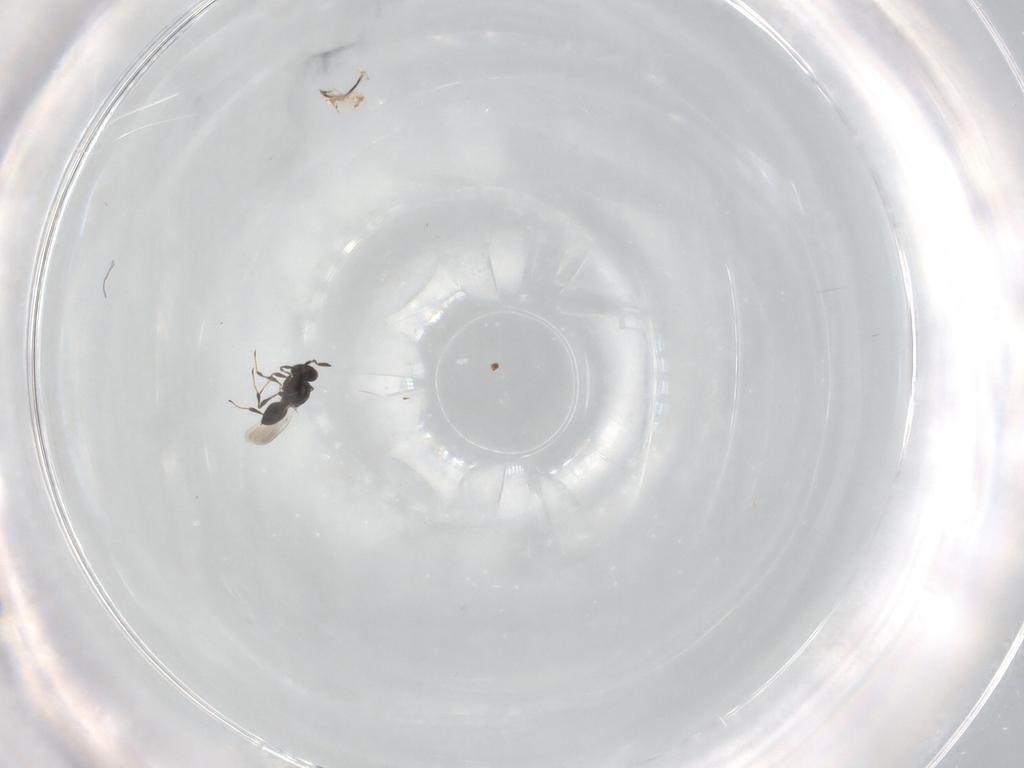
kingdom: Animalia
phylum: Arthropoda
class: Insecta
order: Hymenoptera
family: Platygastridae
